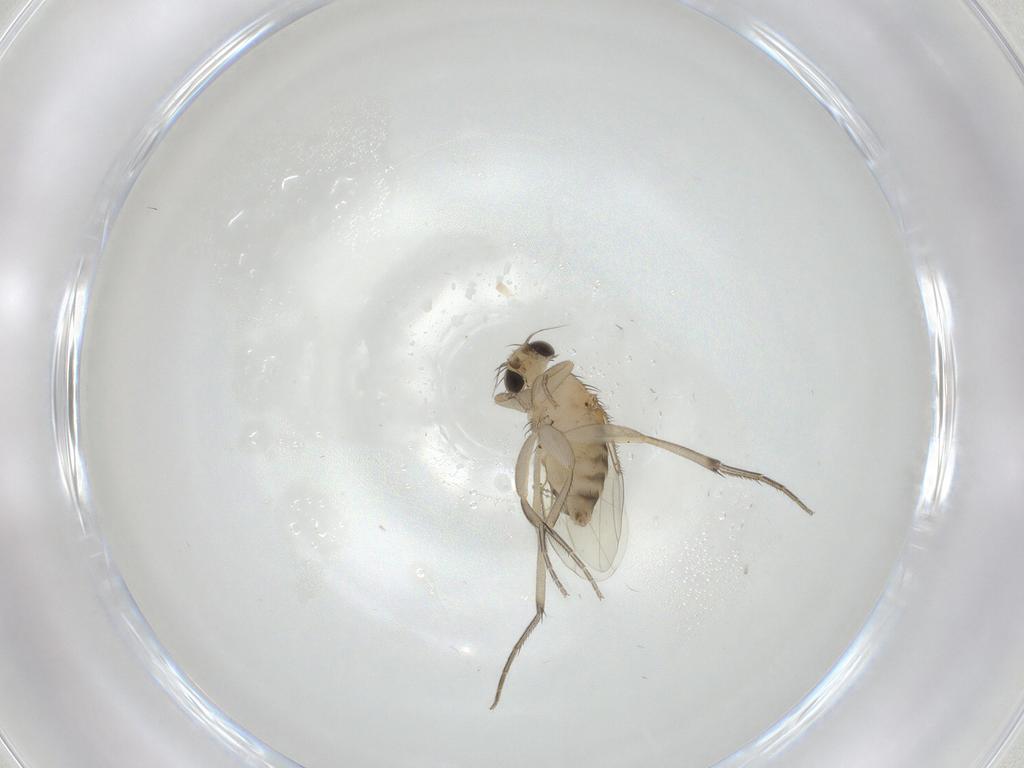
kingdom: Animalia
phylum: Arthropoda
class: Insecta
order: Diptera
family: Phoridae
